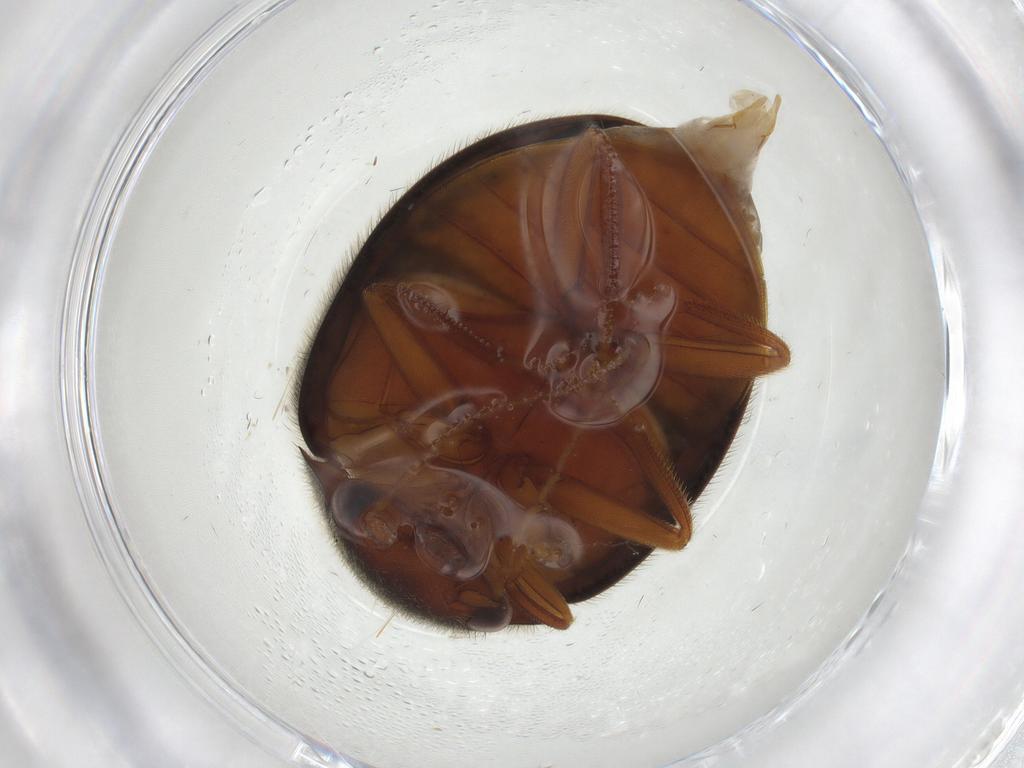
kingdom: Animalia
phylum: Arthropoda
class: Insecta
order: Coleoptera
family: Scirtidae
